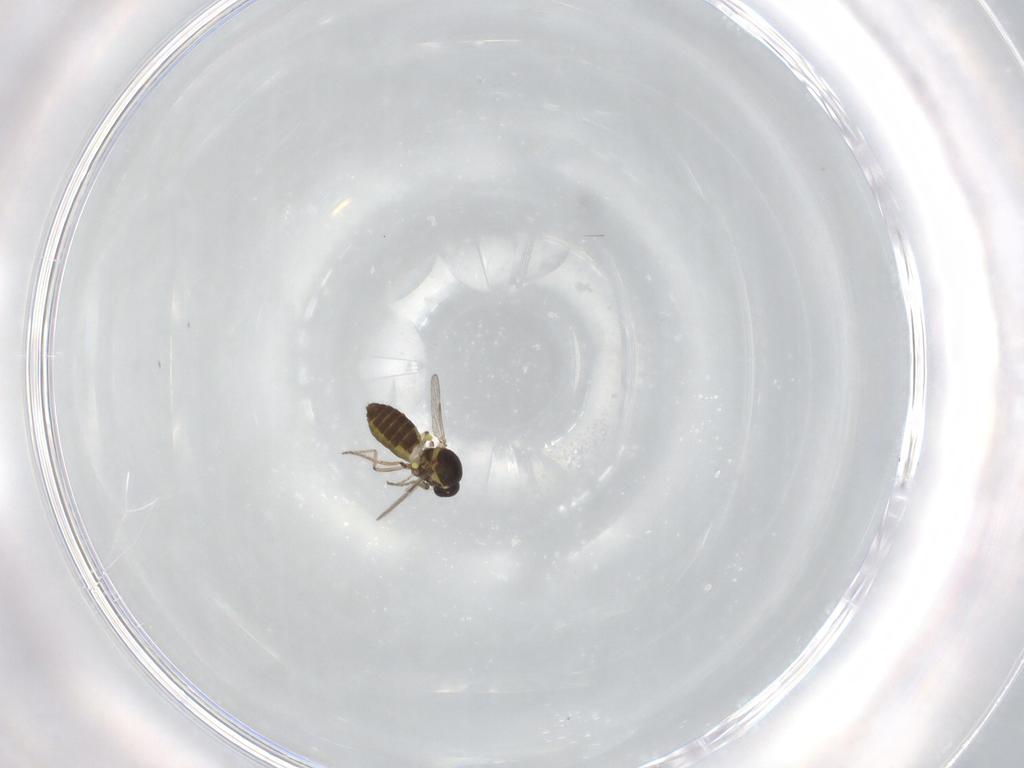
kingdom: Animalia
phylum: Arthropoda
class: Insecta
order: Diptera
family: Ceratopogonidae
